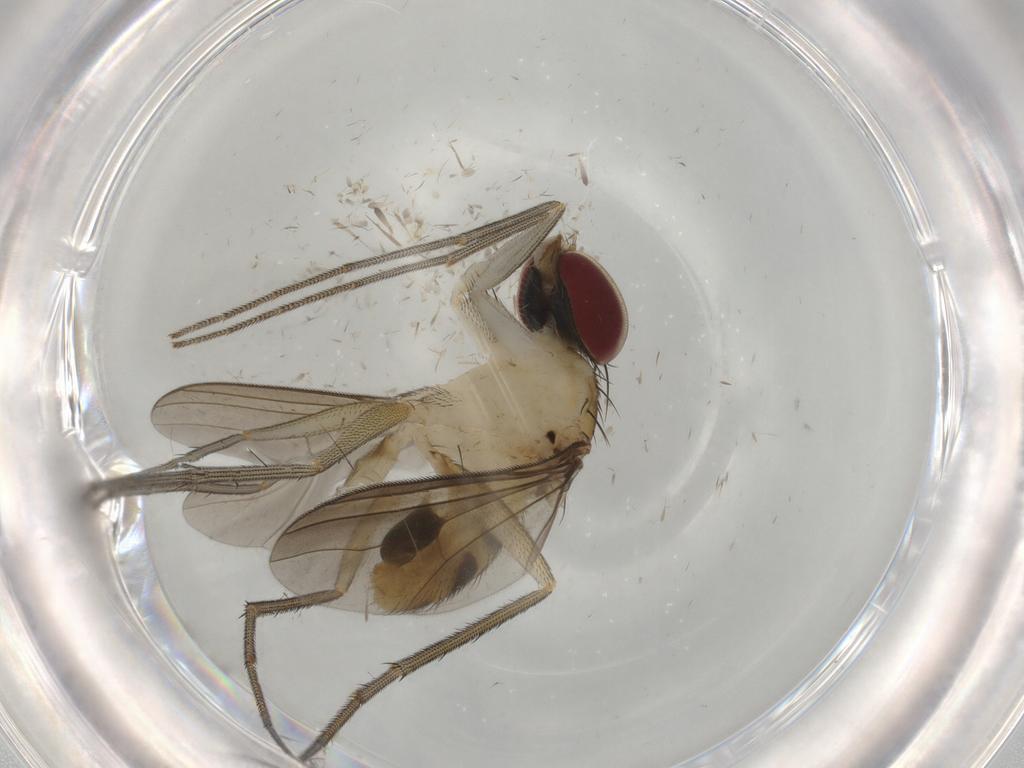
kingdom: Animalia
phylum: Arthropoda
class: Insecta
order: Diptera
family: Dolichopodidae
